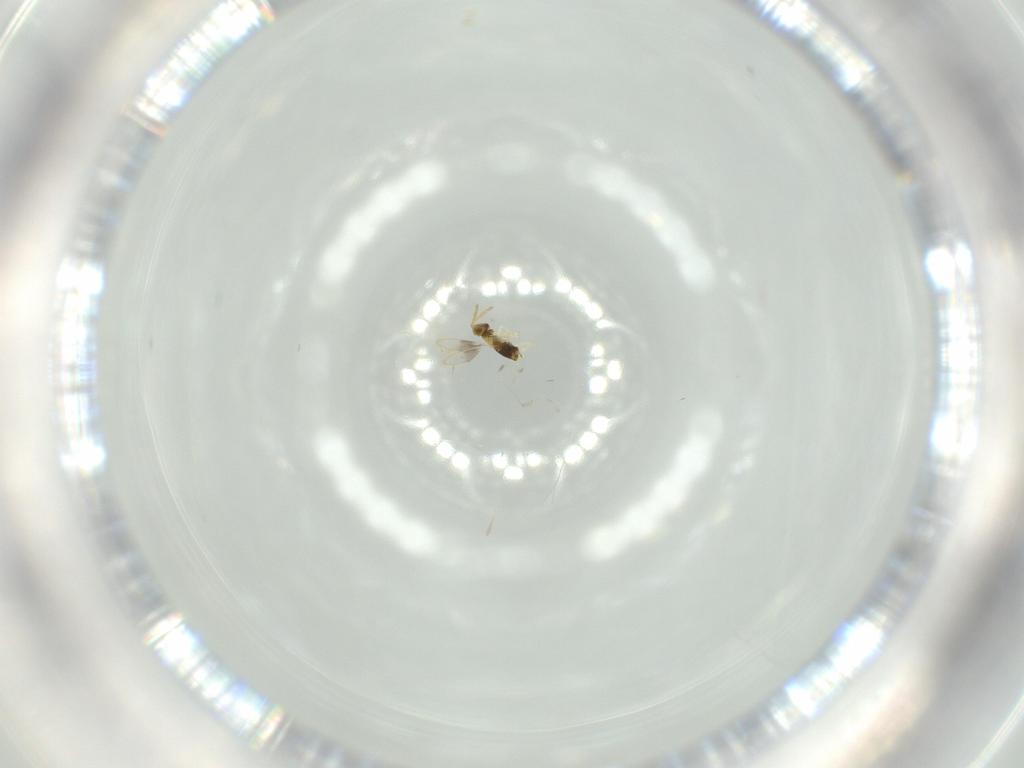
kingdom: Animalia
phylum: Arthropoda
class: Insecta
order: Hymenoptera
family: Aphelinidae
